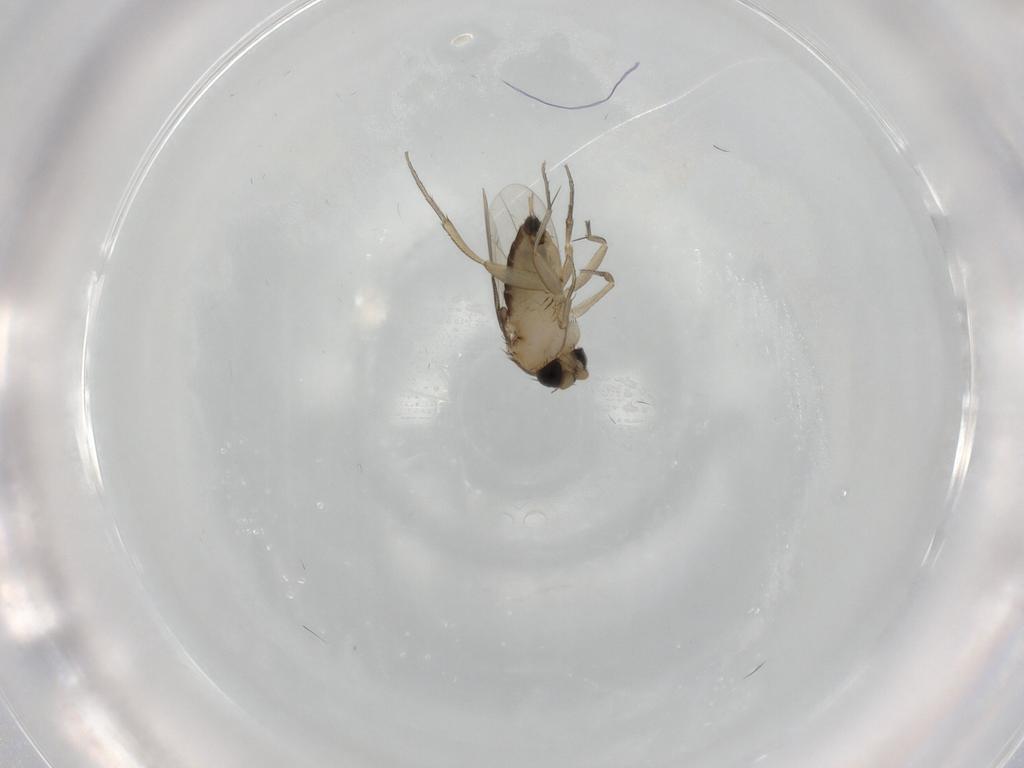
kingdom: Animalia
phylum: Arthropoda
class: Insecta
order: Diptera
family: Phoridae
